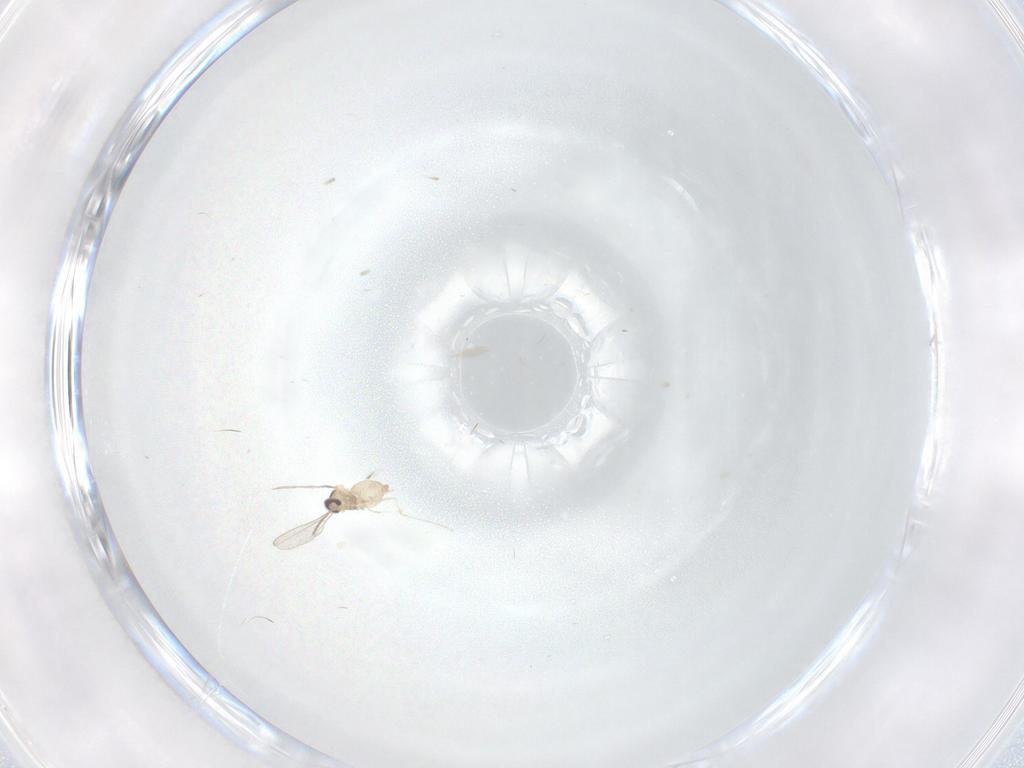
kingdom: Animalia
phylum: Arthropoda
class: Insecta
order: Diptera
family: Cecidomyiidae
